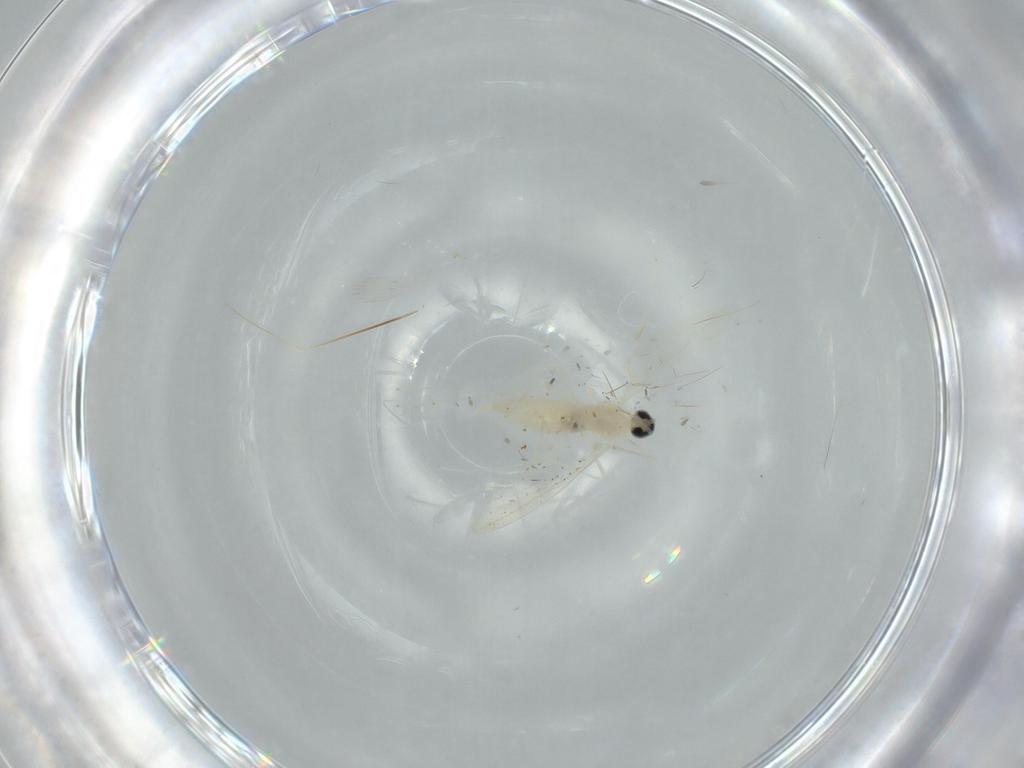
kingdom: Animalia
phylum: Arthropoda
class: Insecta
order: Diptera
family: Cecidomyiidae
